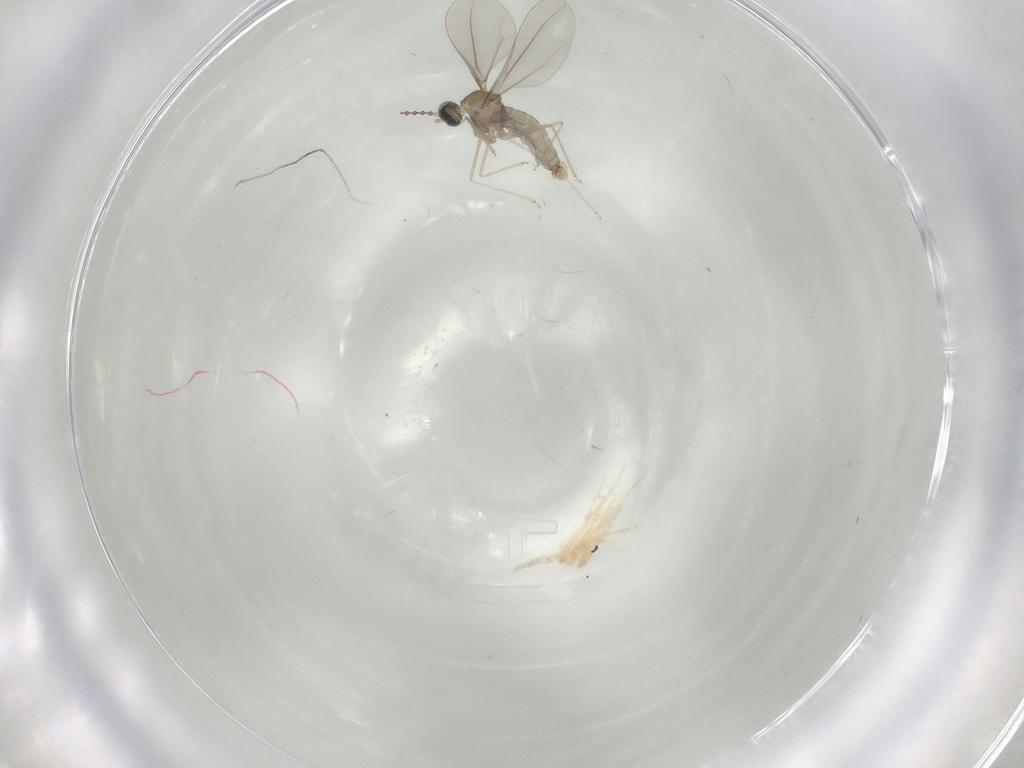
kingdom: Animalia
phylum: Arthropoda
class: Insecta
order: Diptera
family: Cecidomyiidae
